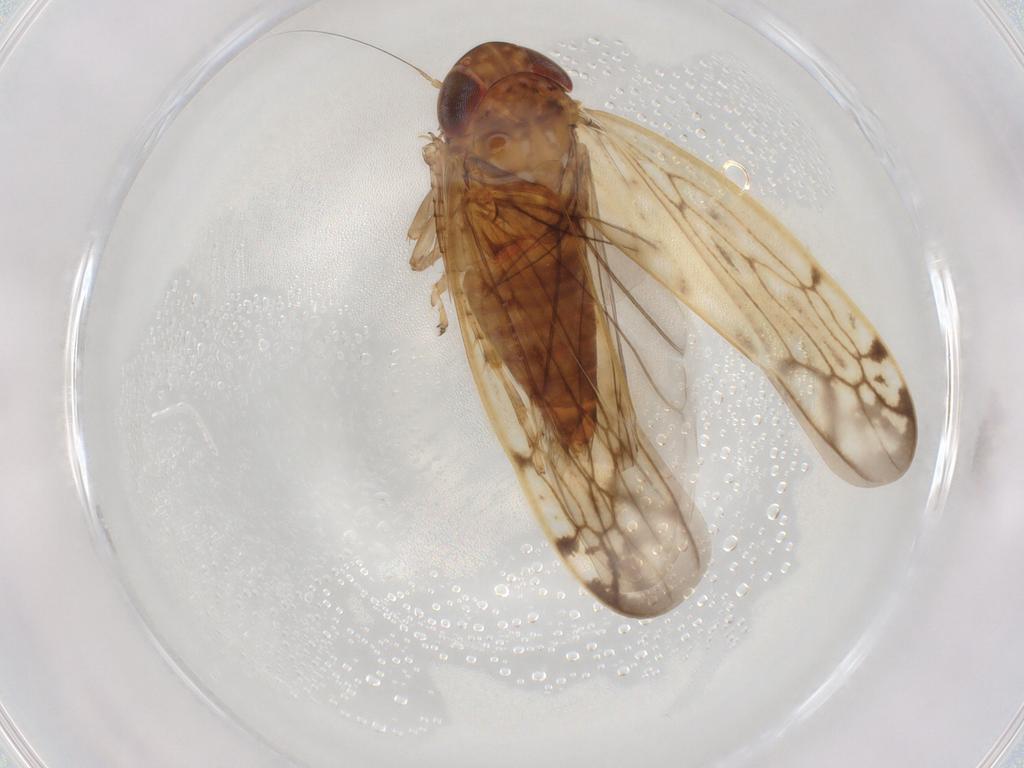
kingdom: Animalia
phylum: Arthropoda
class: Insecta
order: Hemiptera
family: Cicadellidae
